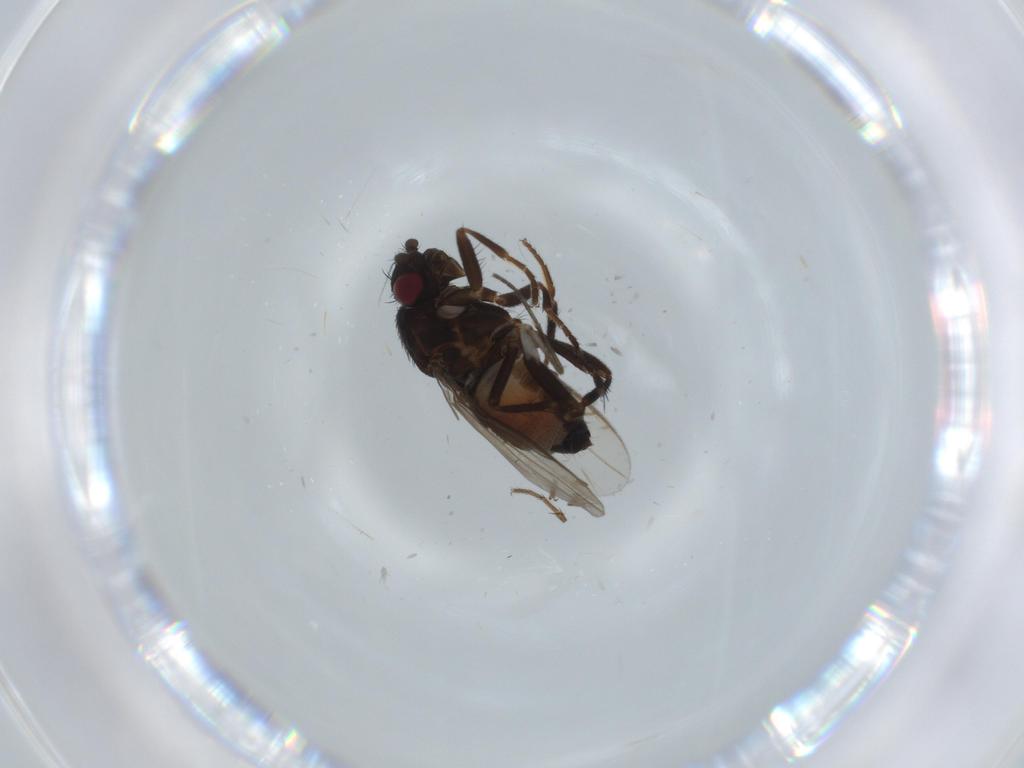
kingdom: Animalia
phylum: Arthropoda
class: Insecta
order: Diptera
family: Sphaeroceridae
